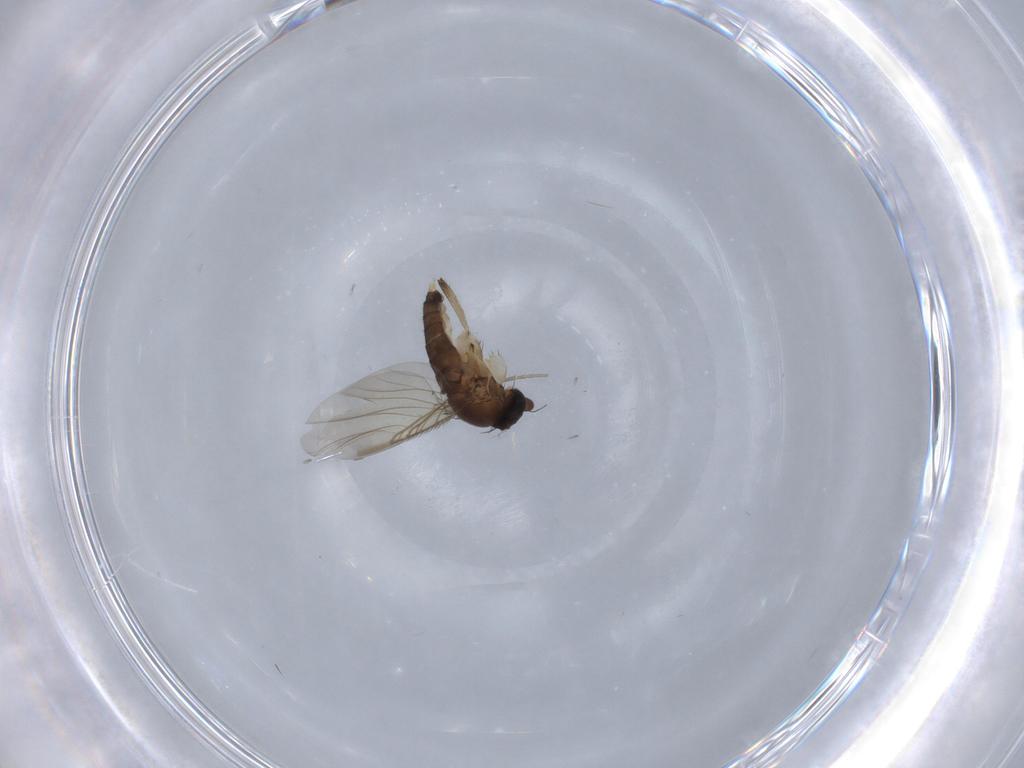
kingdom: Animalia
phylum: Arthropoda
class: Insecta
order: Diptera
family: Phoridae
